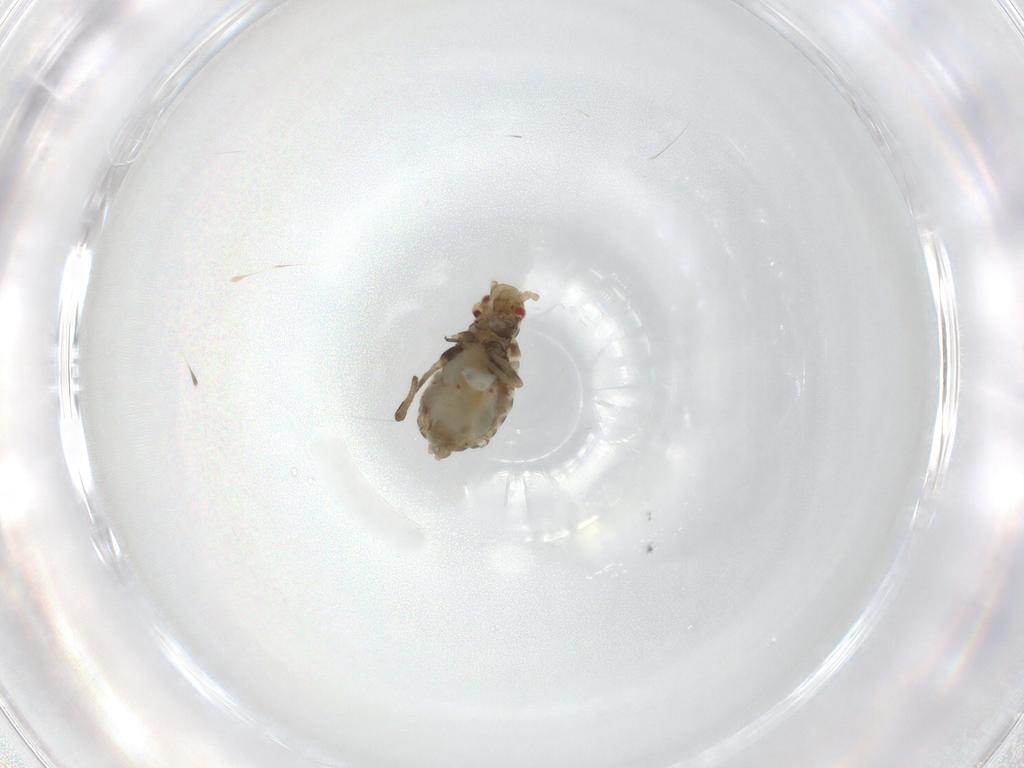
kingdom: Animalia
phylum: Arthropoda
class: Insecta
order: Hemiptera
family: Aphididae
